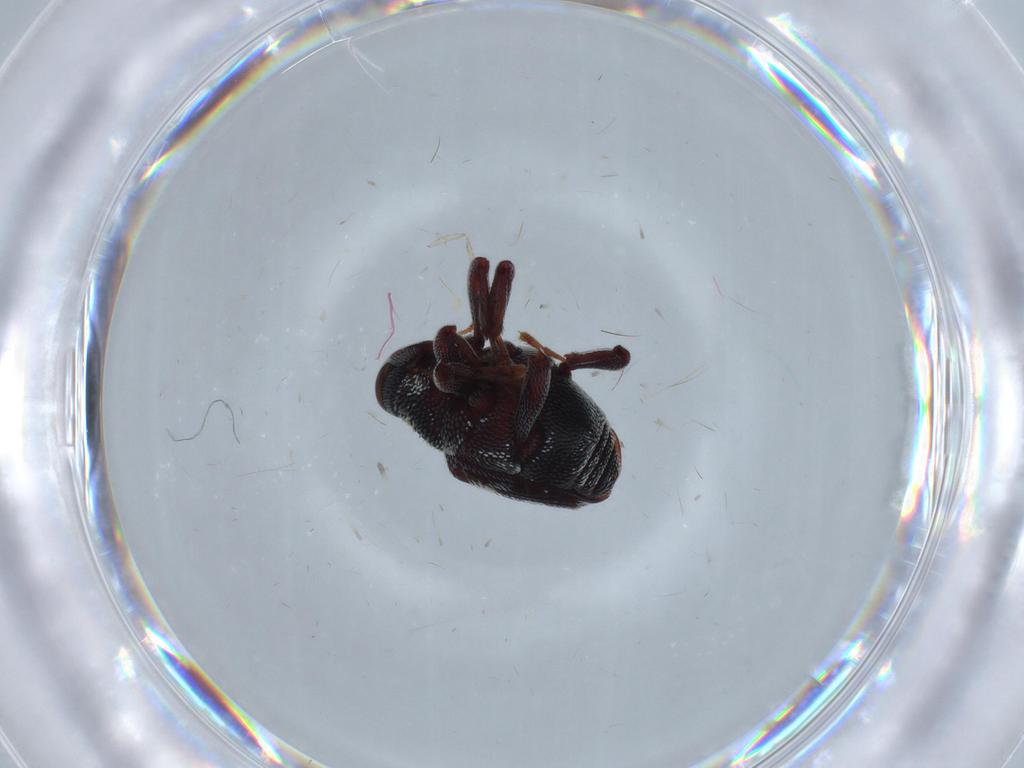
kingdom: Animalia
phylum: Arthropoda
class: Insecta
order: Coleoptera
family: Curculionidae
